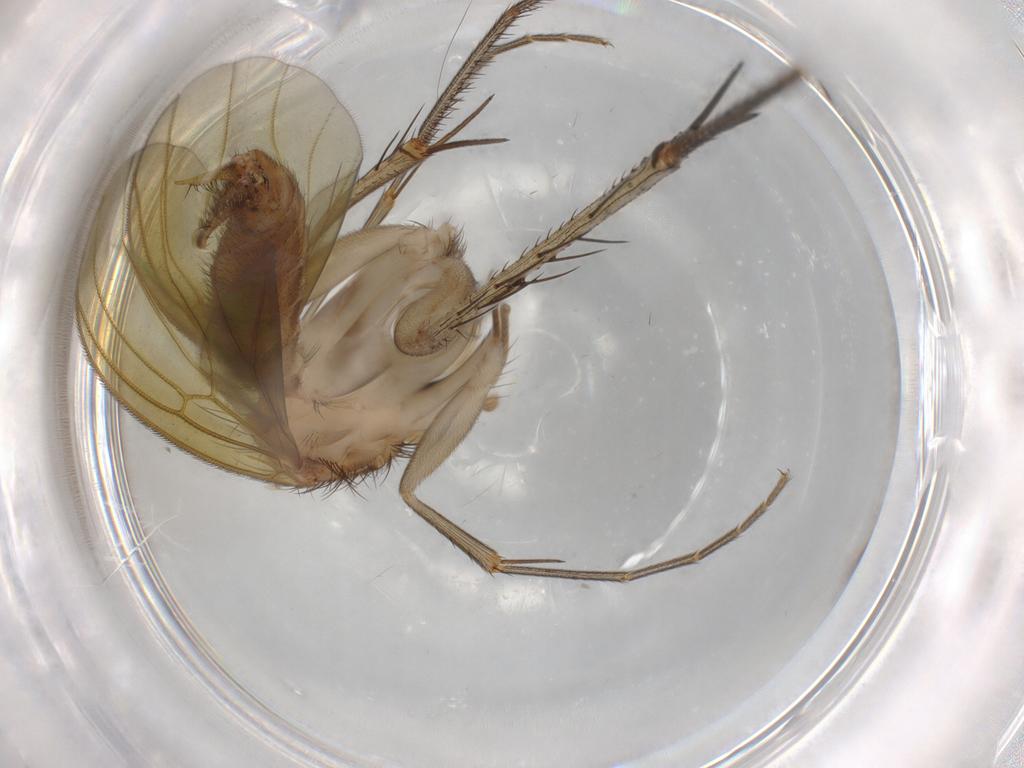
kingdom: Animalia
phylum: Arthropoda
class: Insecta
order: Diptera
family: Mycetophilidae
